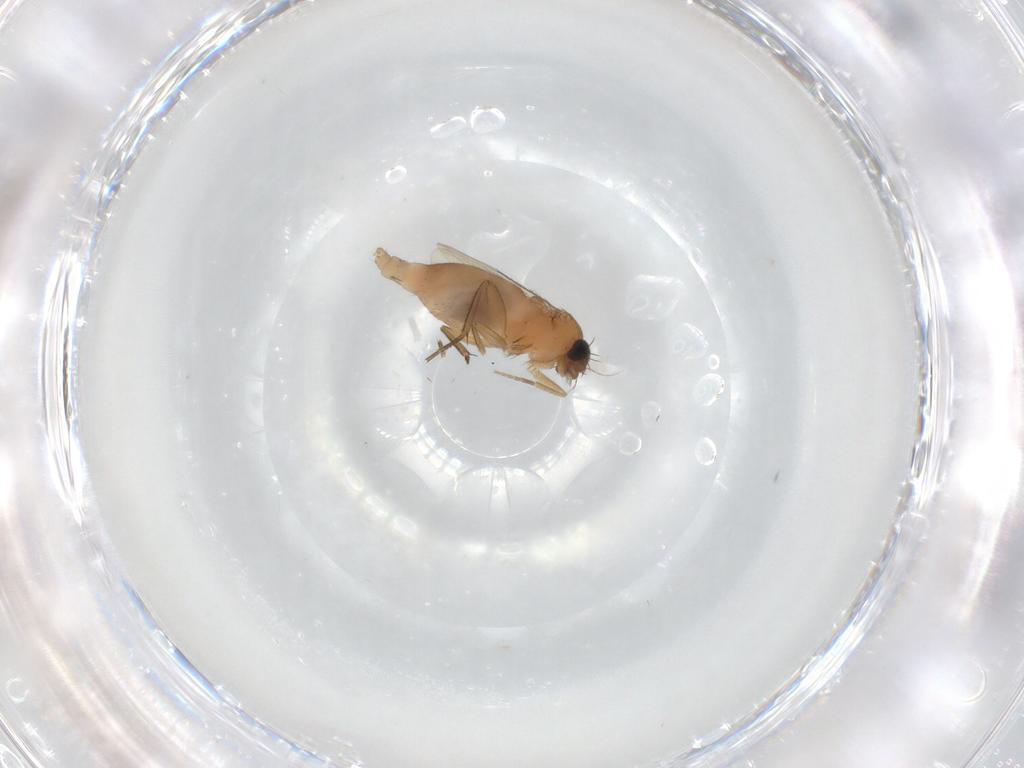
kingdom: Animalia
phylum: Arthropoda
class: Insecta
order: Diptera
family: Phoridae
